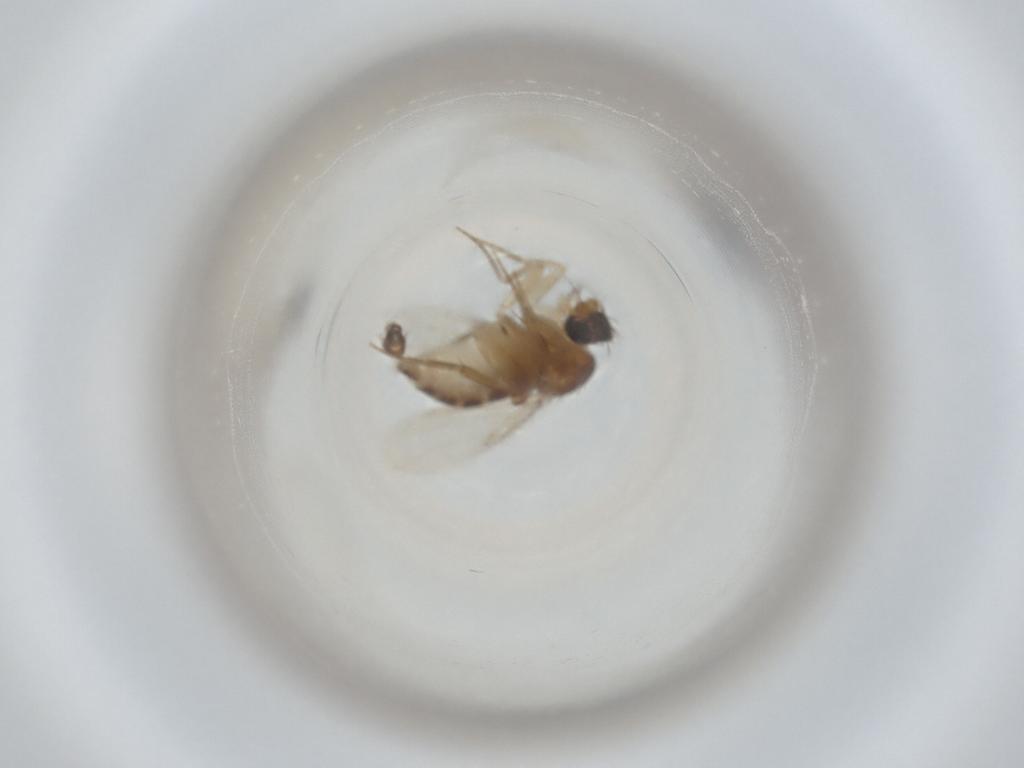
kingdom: Animalia
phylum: Arthropoda
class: Insecta
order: Diptera
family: Phoridae
